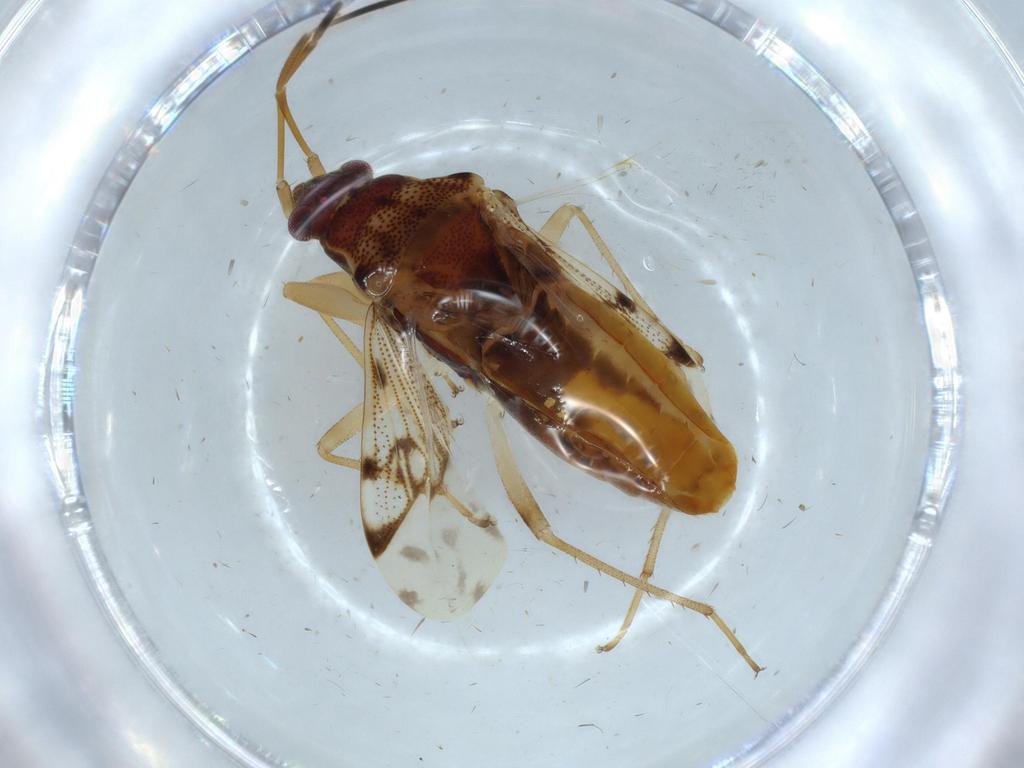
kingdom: Animalia
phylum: Arthropoda
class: Insecta
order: Hemiptera
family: Rhyparochromidae
